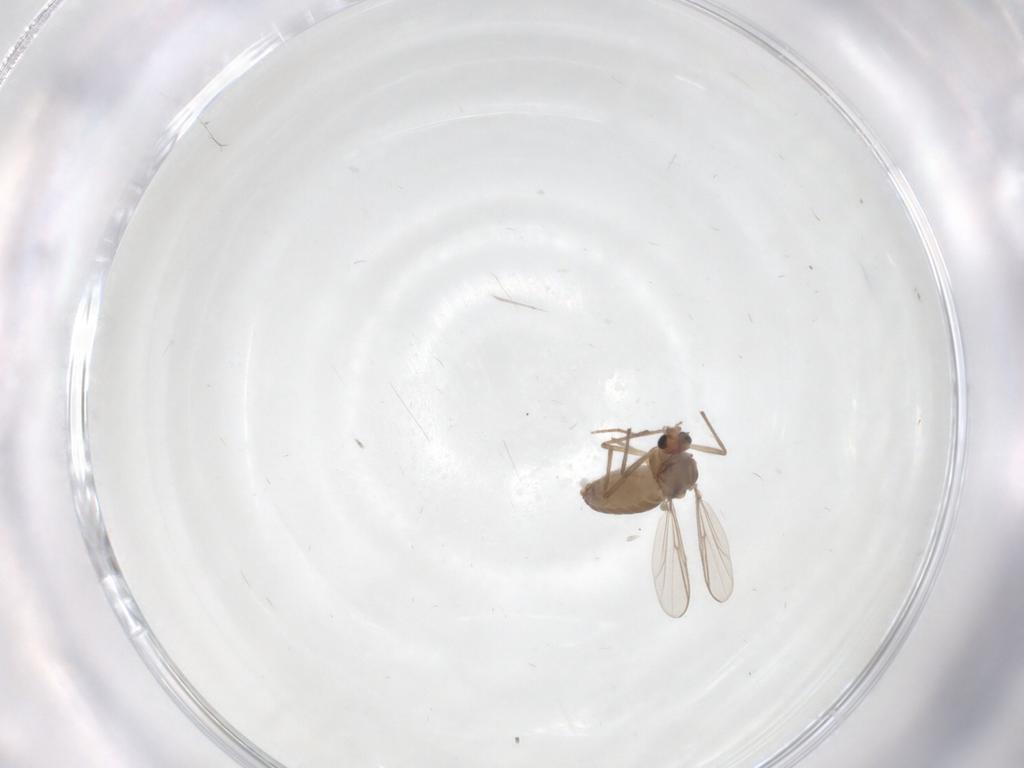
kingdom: Animalia
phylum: Arthropoda
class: Insecta
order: Diptera
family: Chironomidae
